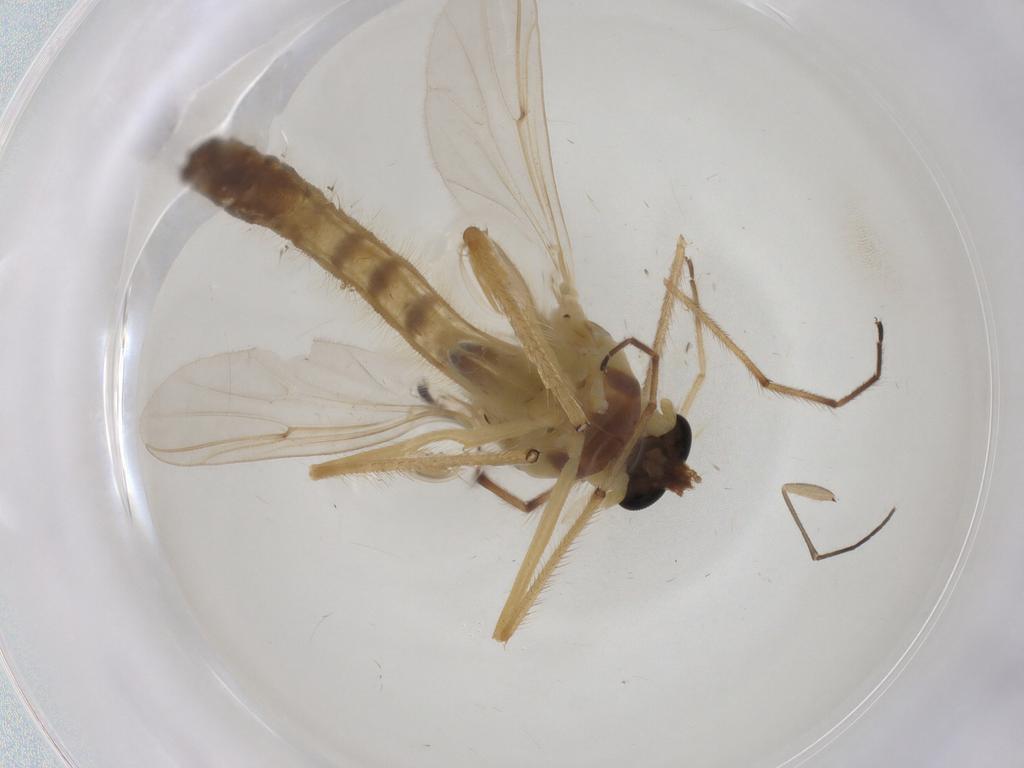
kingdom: Animalia
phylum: Arthropoda
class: Insecta
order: Diptera
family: Chironomidae
